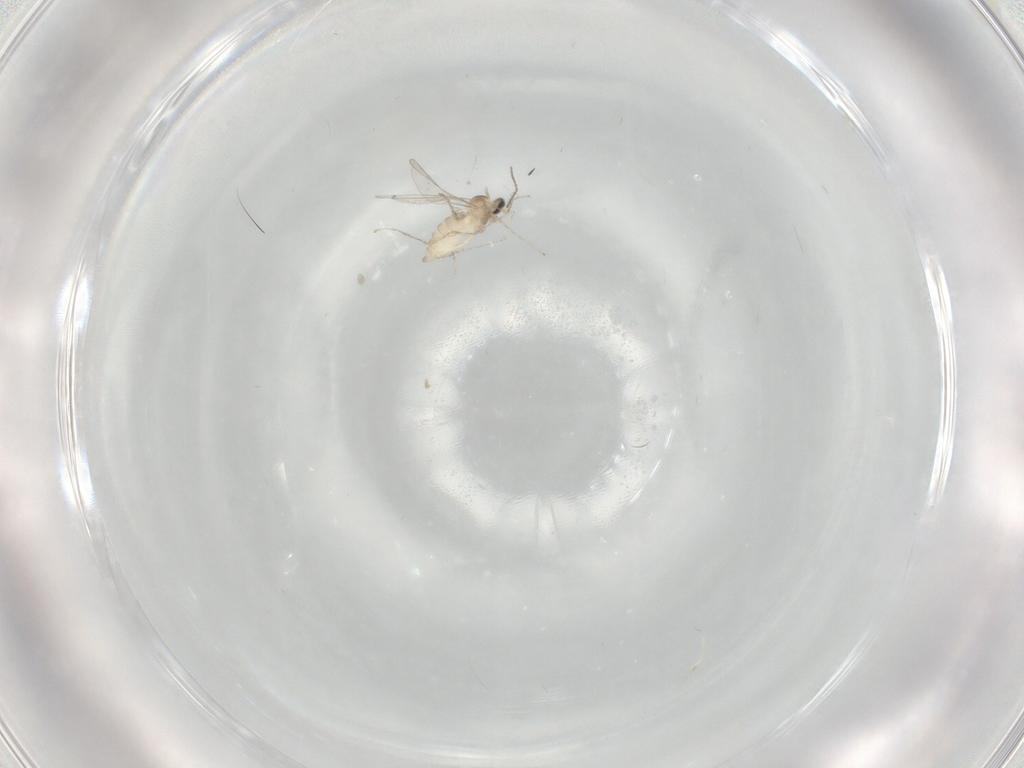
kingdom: Animalia
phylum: Arthropoda
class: Insecta
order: Diptera
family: Cecidomyiidae
